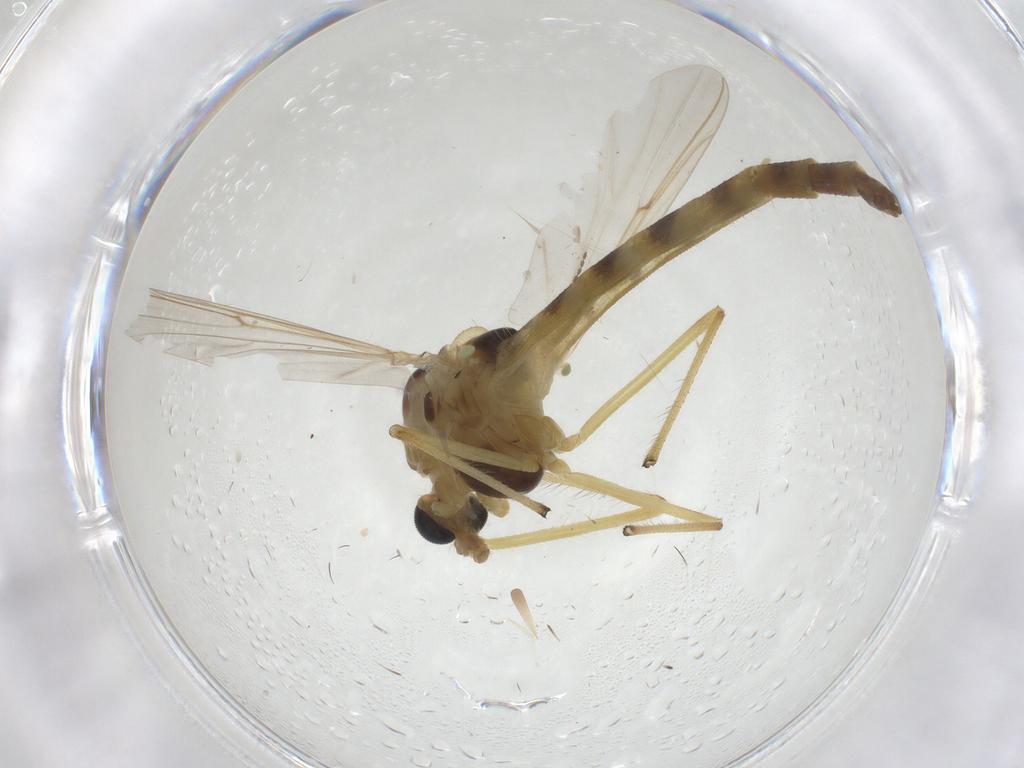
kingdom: Animalia
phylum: Arthropoda
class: Insecta
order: Diptera
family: Chironomidae
